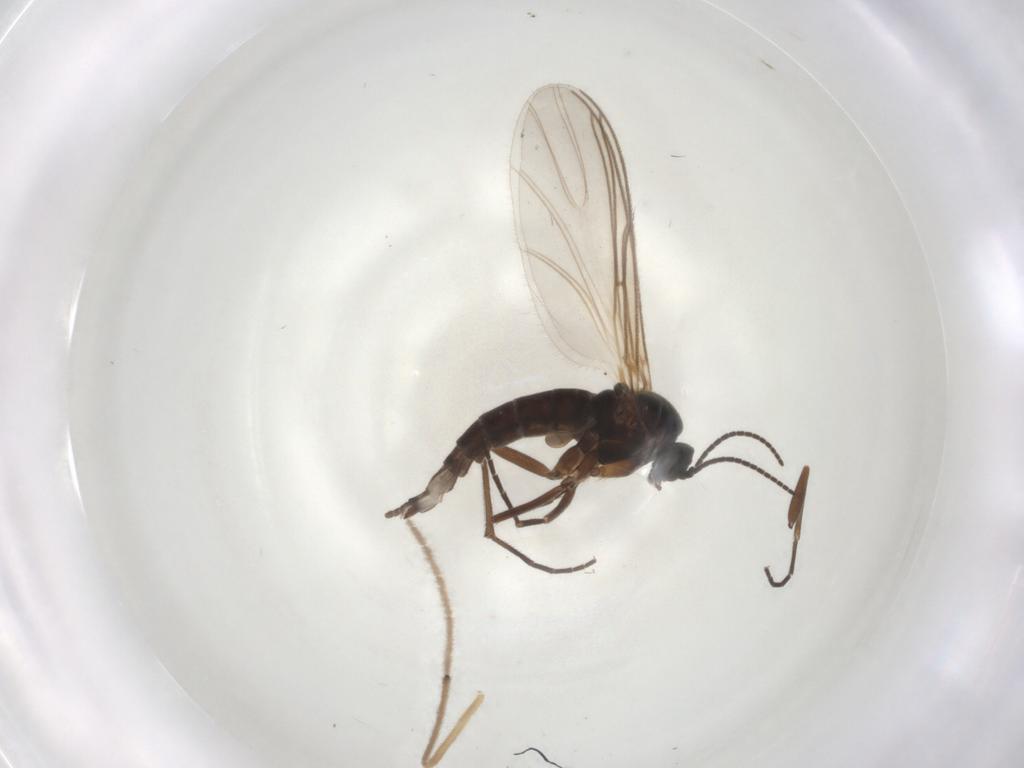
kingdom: Animalia
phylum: Arthropoda
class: Insecta
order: Diptera
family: Sciaridae
